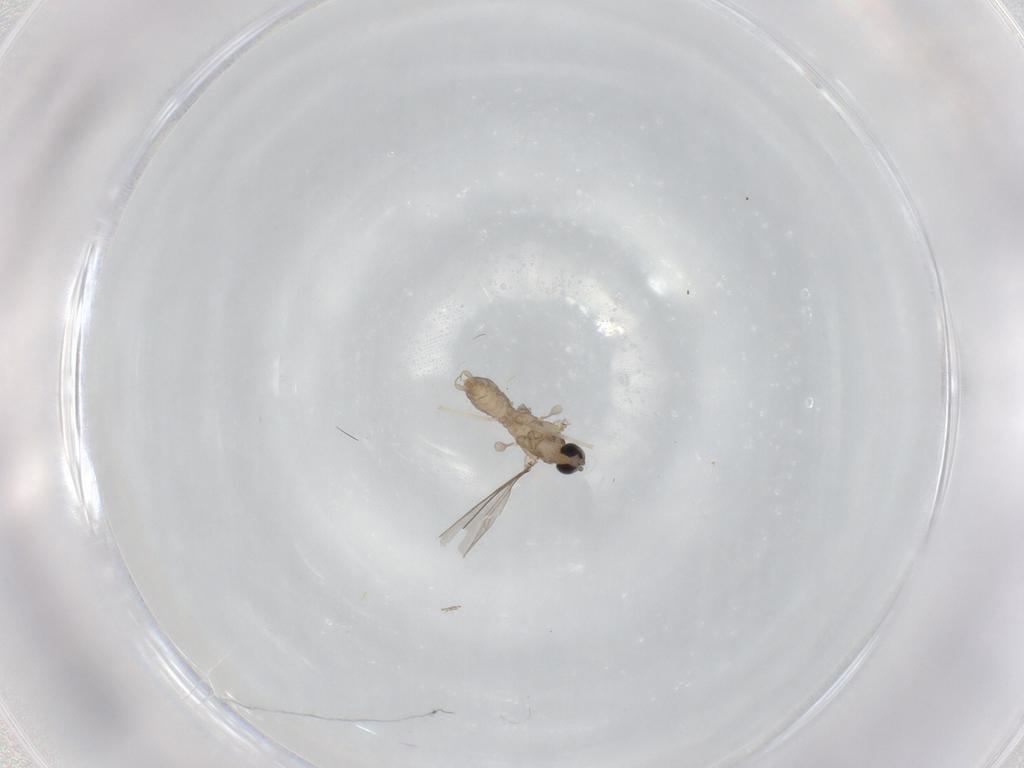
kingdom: Animalia
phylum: Arthropoda
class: Insecta
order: Diptera
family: Cecidomyiidae
